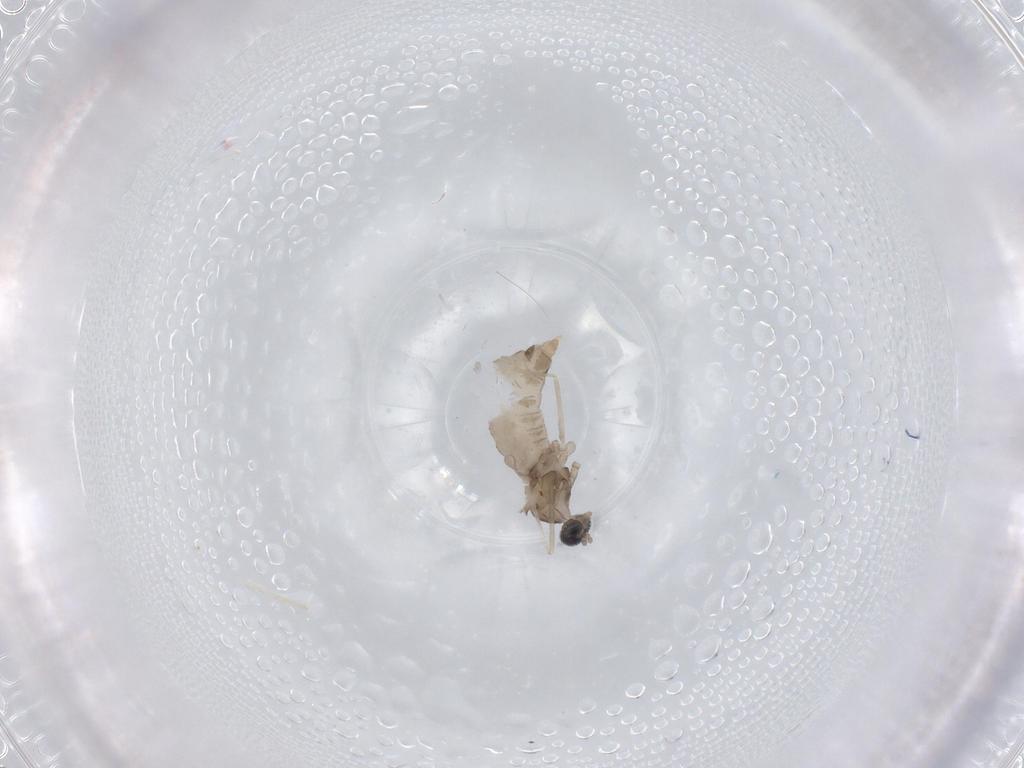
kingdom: Animalia
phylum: Arthropoda
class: Insecta
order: Diptera
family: Cecidomyiidae
